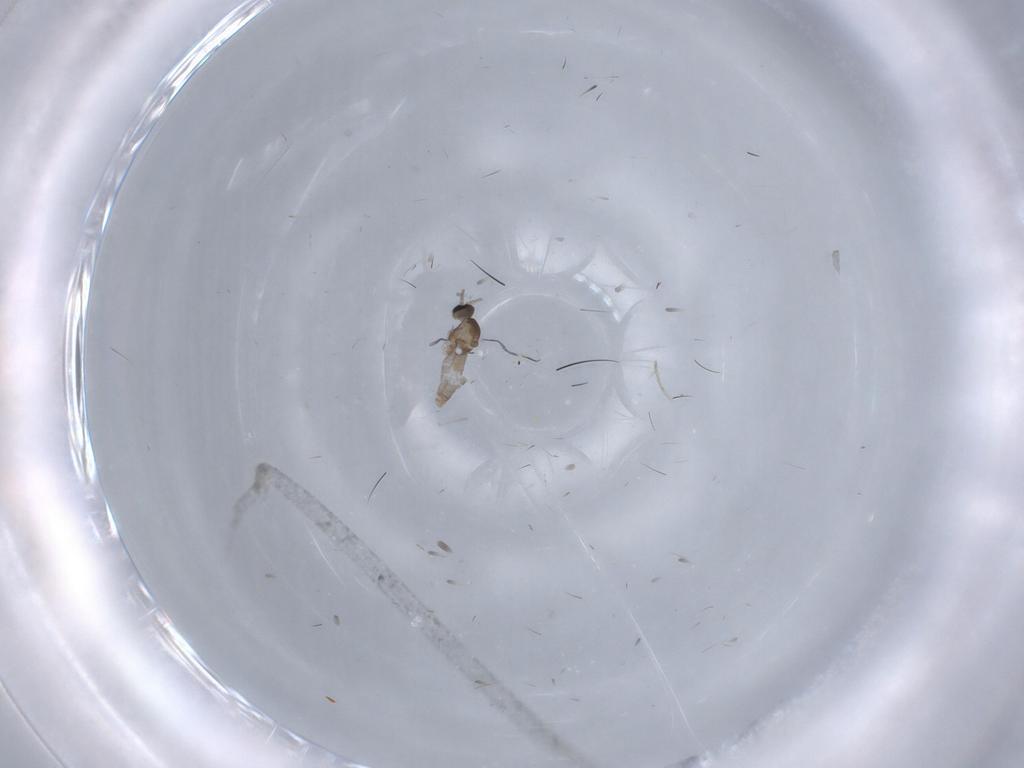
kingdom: Animalia
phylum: Arthropoda
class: Insecta
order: Diptera
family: Cecidomyiidae
